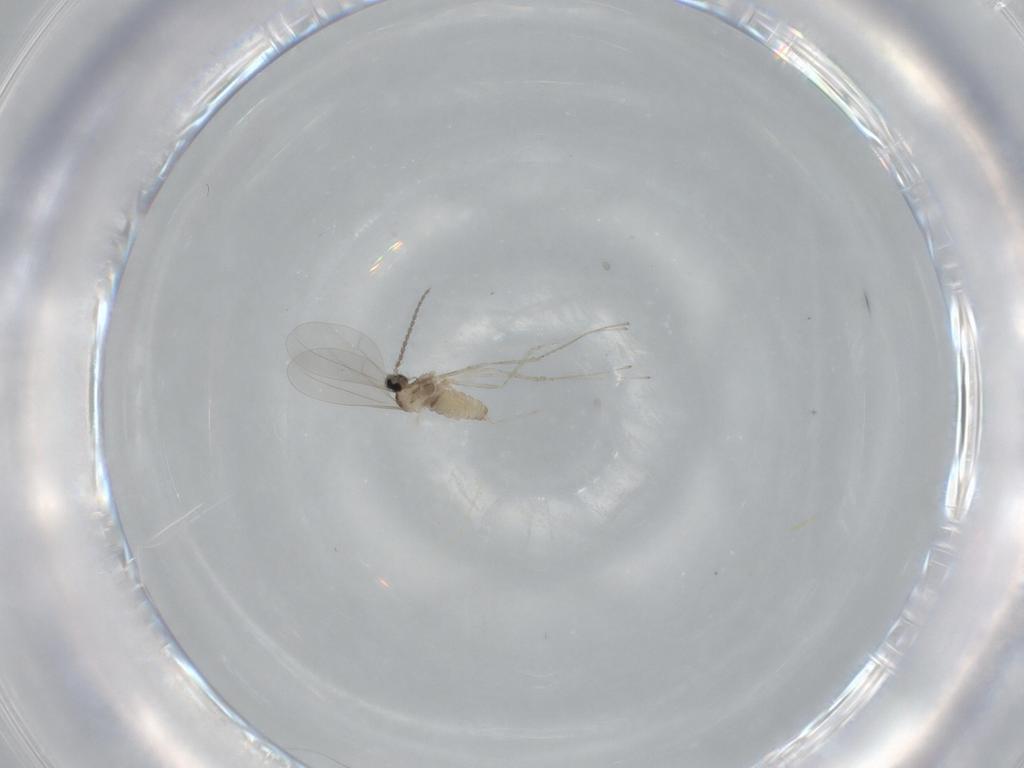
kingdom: Animalia
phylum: Arthropoda
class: Insecta
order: Diptera
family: Cecidomyiidae
